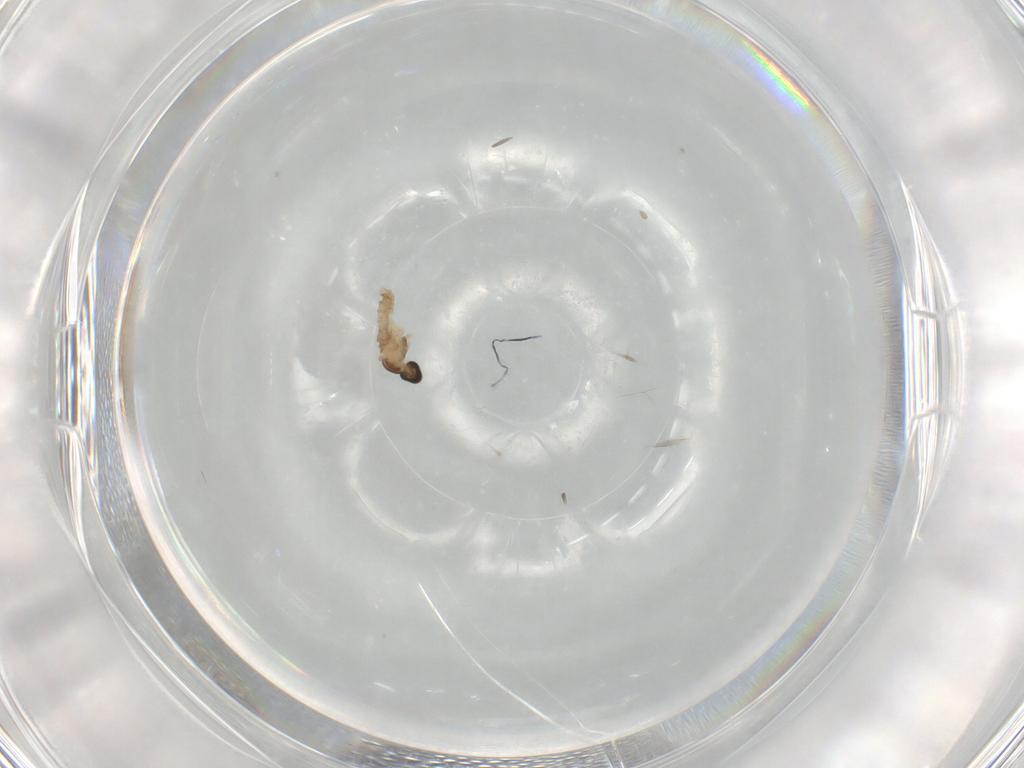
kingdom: Animalia
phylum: Arthropoda
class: Insecta
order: Diptera
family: Cecidomyiidae
